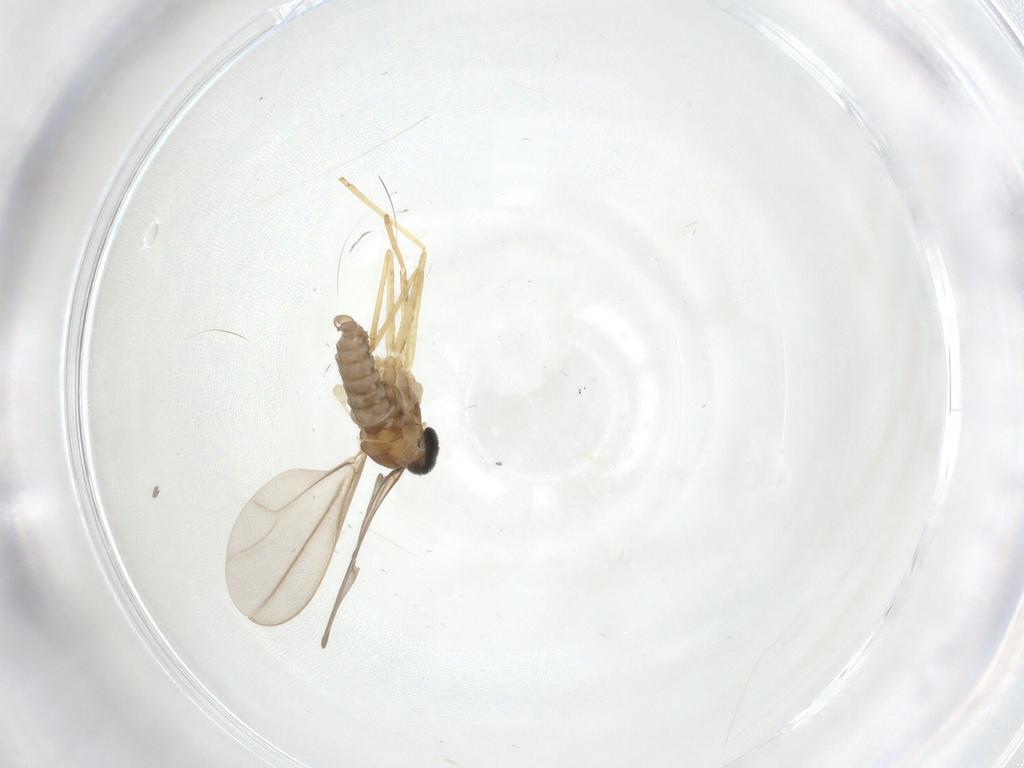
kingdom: Animalia
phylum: Arthropoda
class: Insecta
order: Diptera
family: Cecidomyiidae
